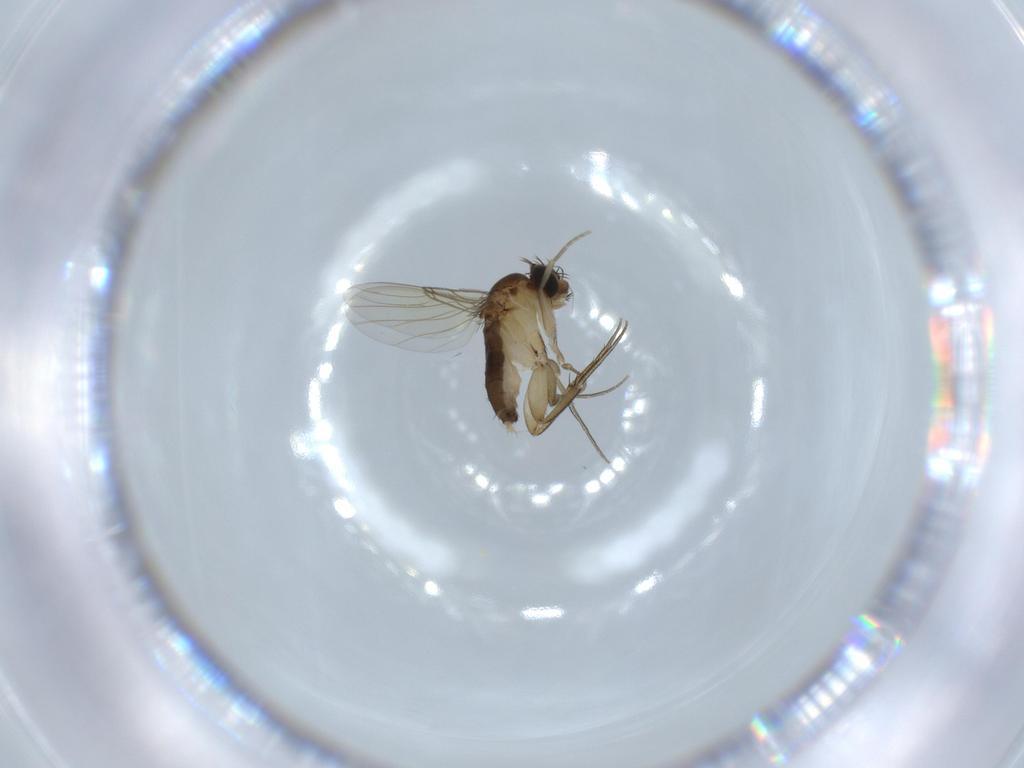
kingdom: Animalia
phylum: Arthropoda
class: Insecta
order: Diptera
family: Phoridae
